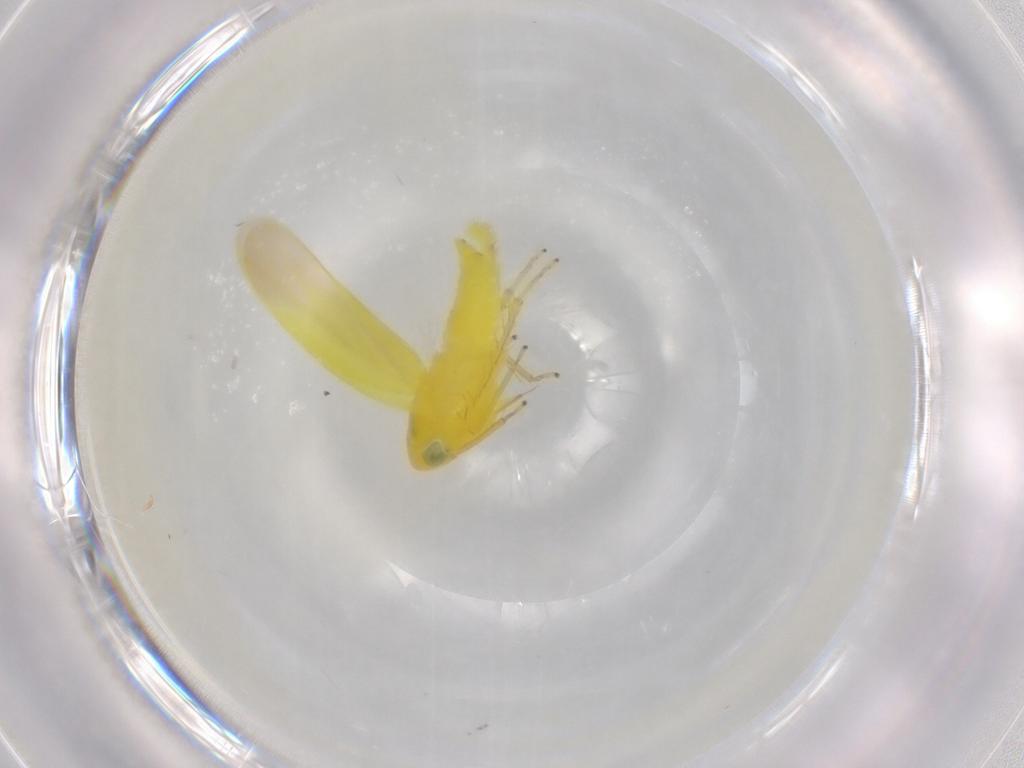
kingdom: Animalia
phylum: Arthropoda
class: Insecta
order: Hemiptera
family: Cicadellidae
